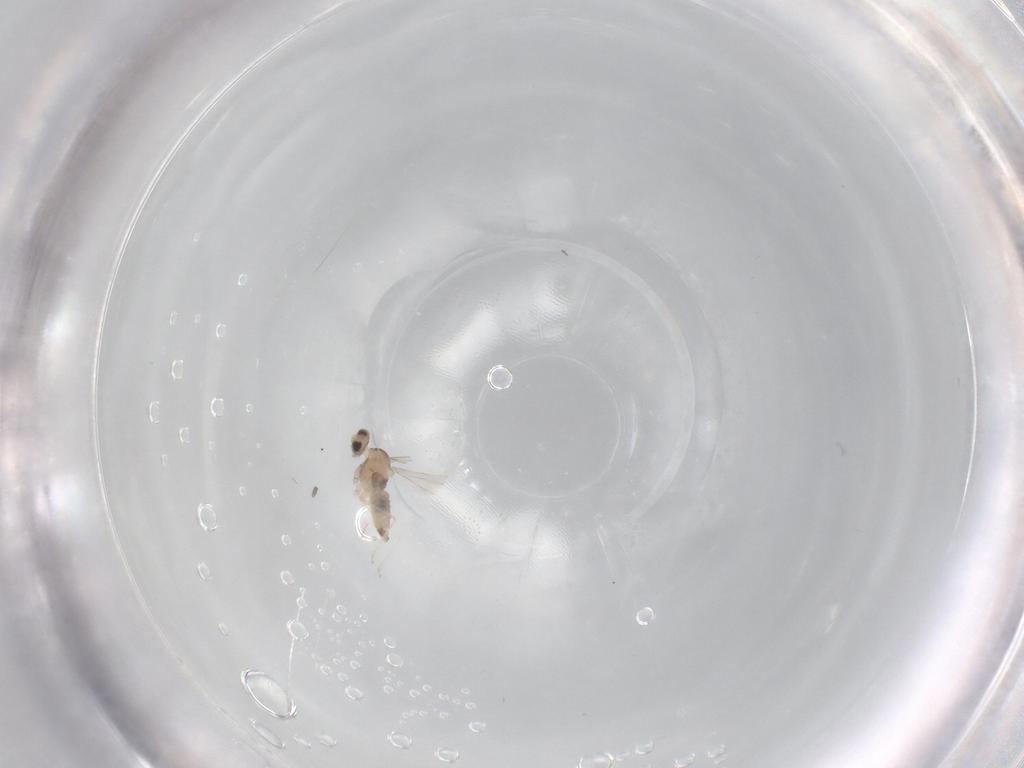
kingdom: Animalia
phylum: Arthropoda
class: Insecta
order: Diptera
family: Cecidomyiidae
